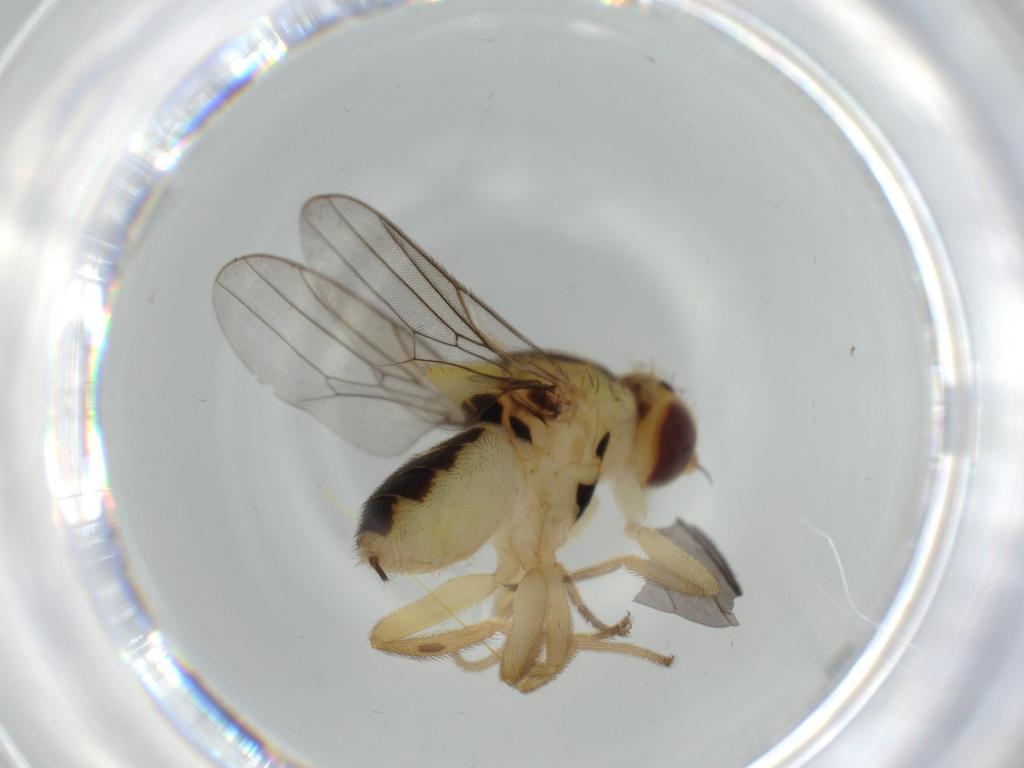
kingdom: Animalia
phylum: Arthropoda
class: Insecta
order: Diptera
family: Chloropidae
